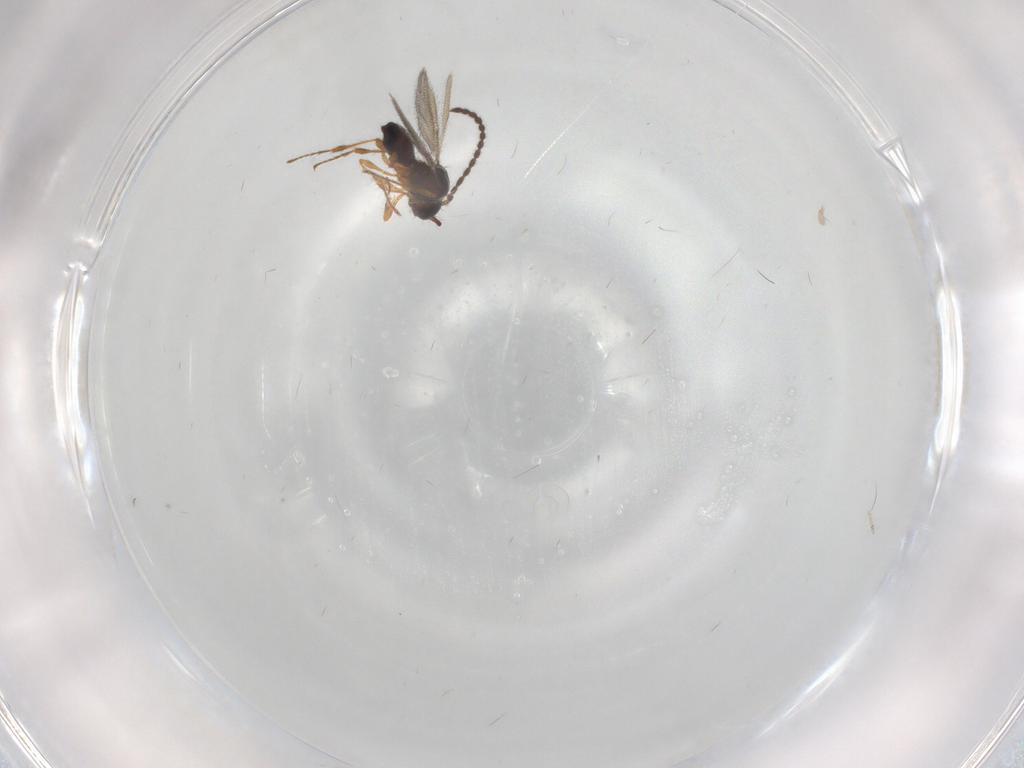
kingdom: Animalia
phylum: Arthropoda
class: Insecta
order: Hymenoptera
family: Diapriidae
